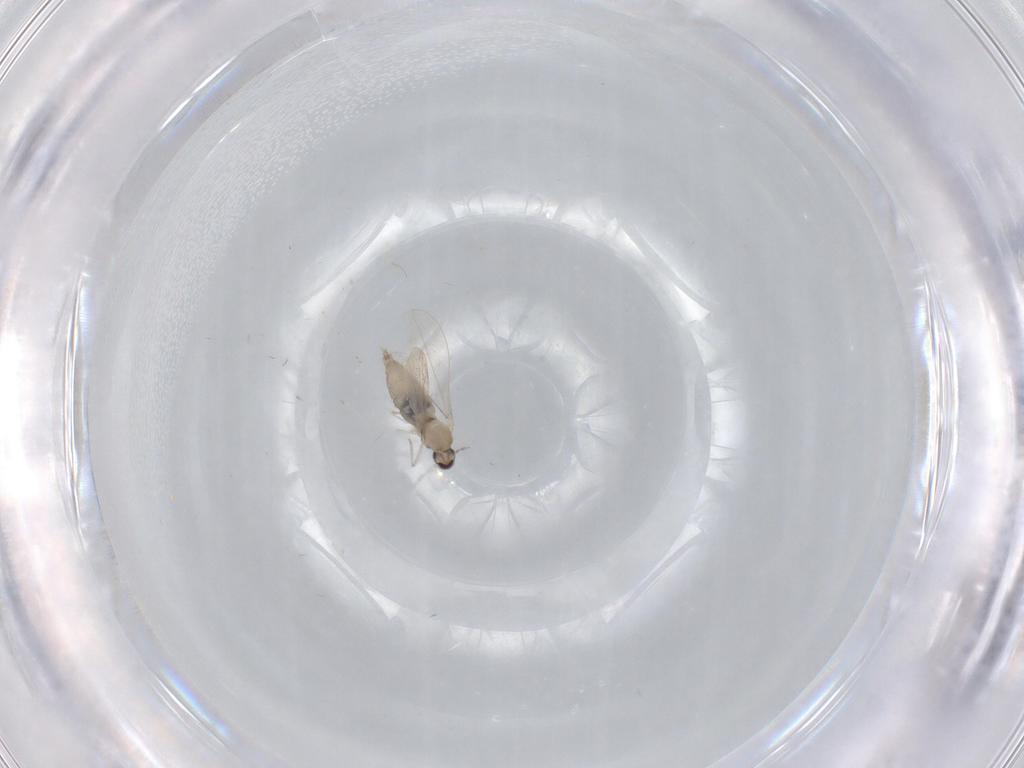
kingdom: Animalia
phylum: Arthropoda
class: Insecta
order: Diptera
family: Cecidomyiidae
